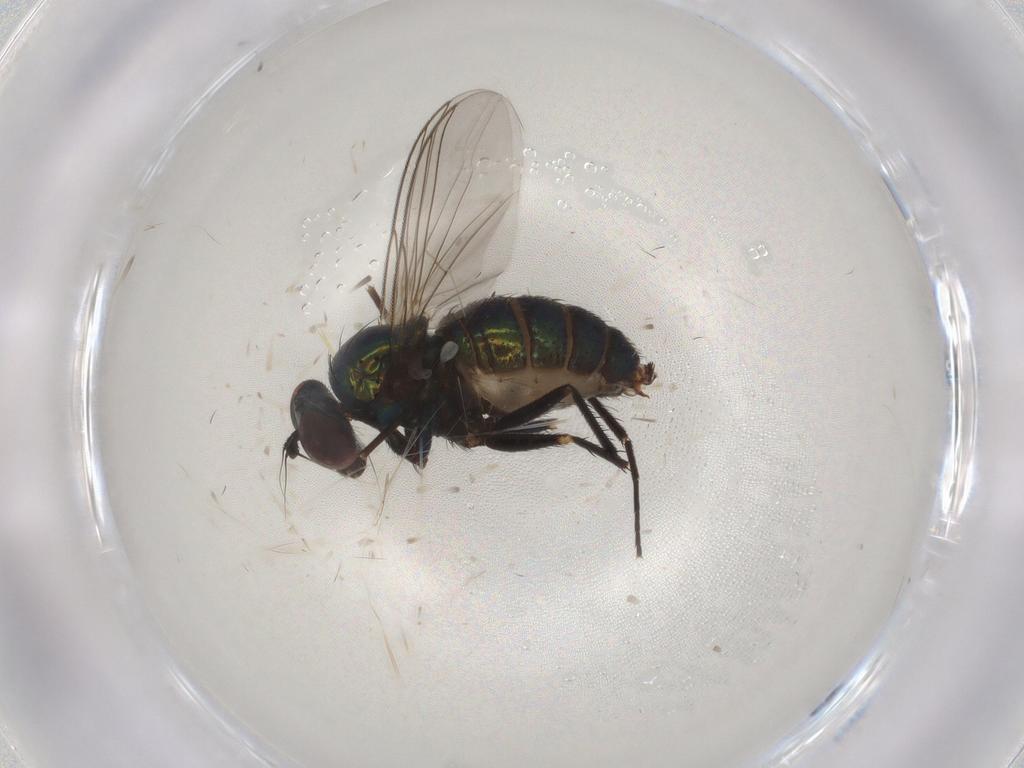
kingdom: Animalia
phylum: Arthropoda
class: Insecta
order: Diptera
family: Dolichopodidae
